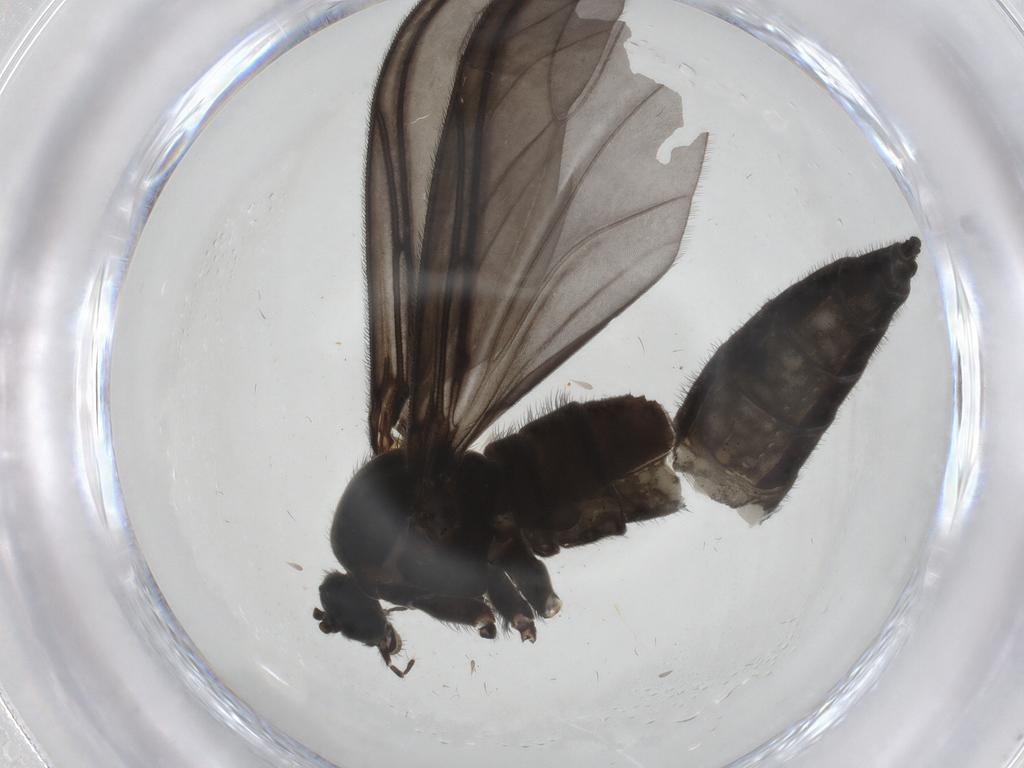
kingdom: Animalia
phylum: Arthropoda
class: Insecta
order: Diptera
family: Sciaridae
